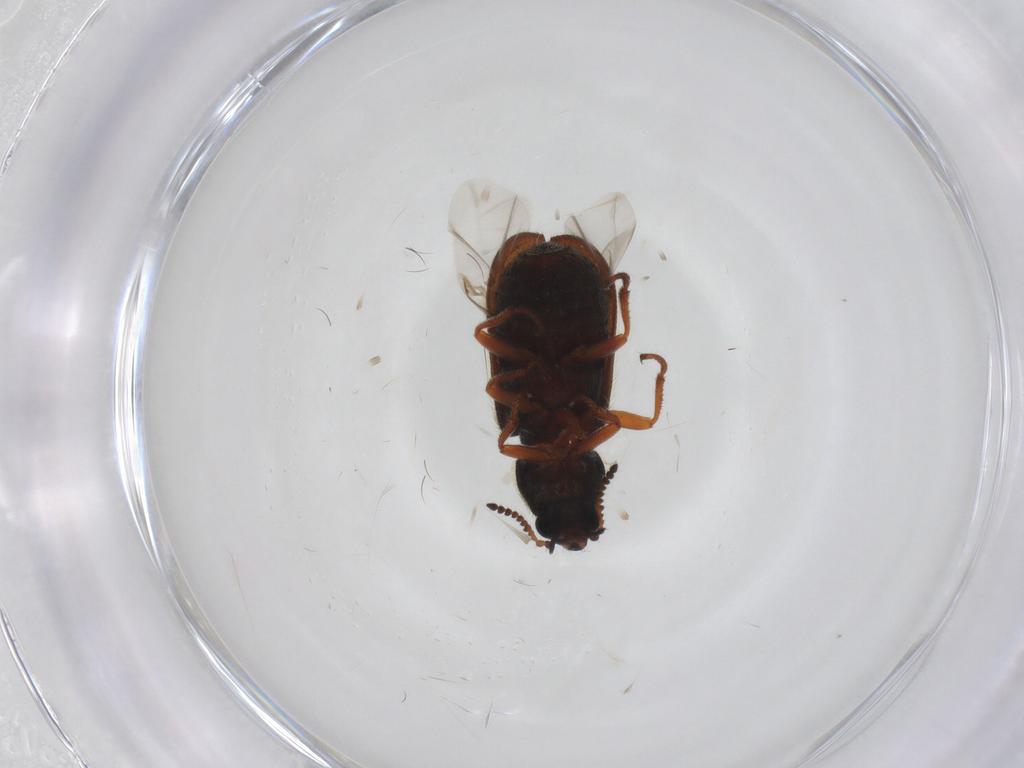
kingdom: Animalia
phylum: Arthropoda
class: Insecta
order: Coleoptera
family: Melyridae
